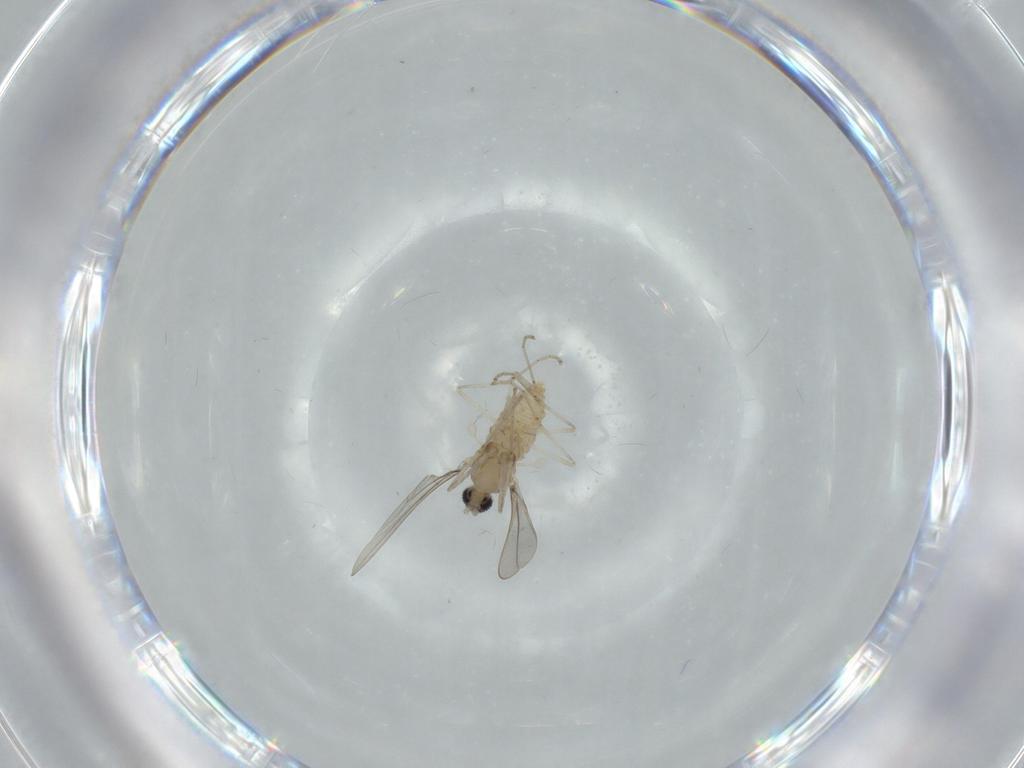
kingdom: Animalia
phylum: Arthropoda
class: Insecta
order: Diptera
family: Cecidomyiidae
